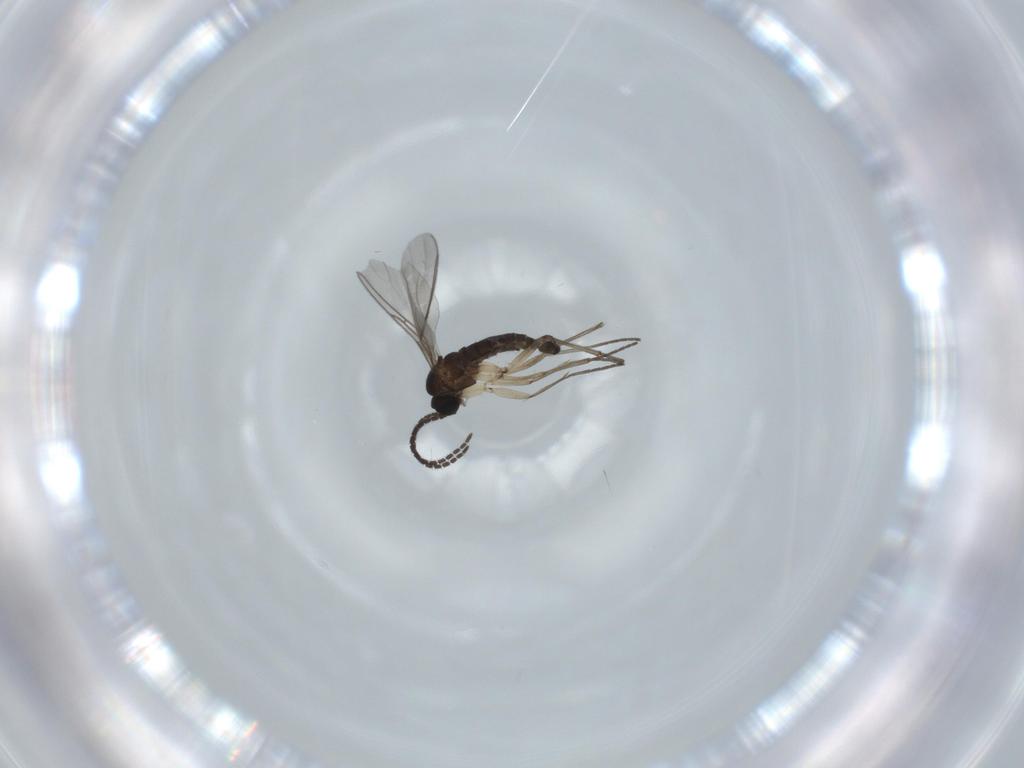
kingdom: Animalia
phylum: Arthropoda
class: Insecta
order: Diptera
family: Sciaridae
